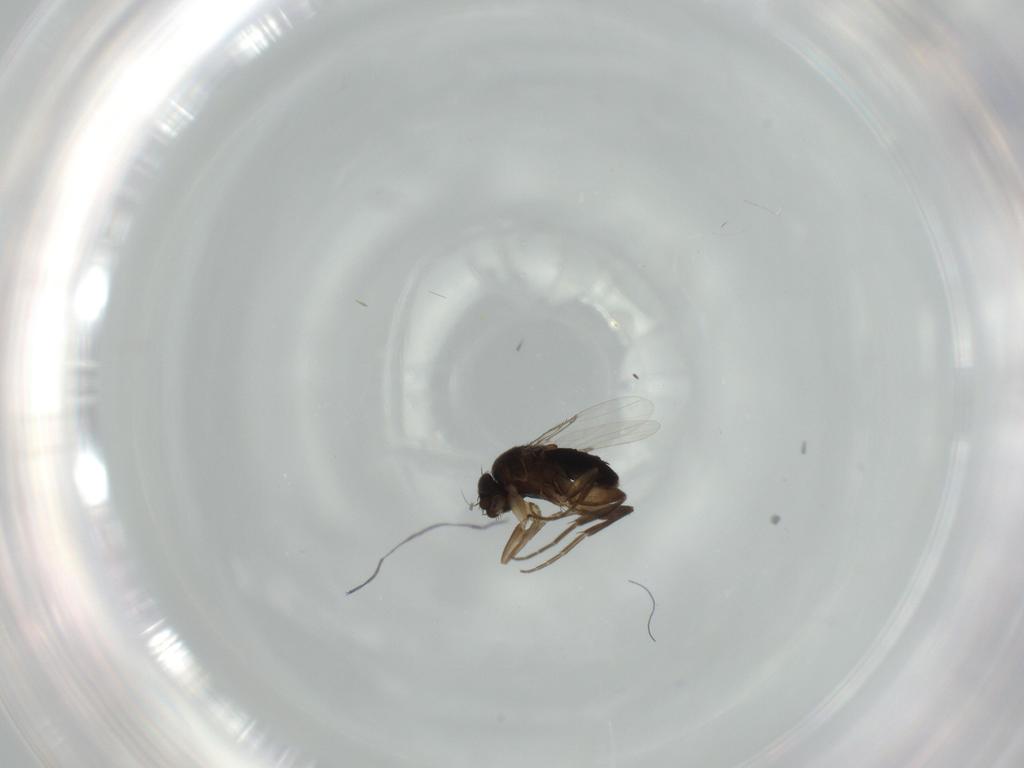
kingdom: Animalia
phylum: Arthropoda
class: Insecta
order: Diptera
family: Phoridae
